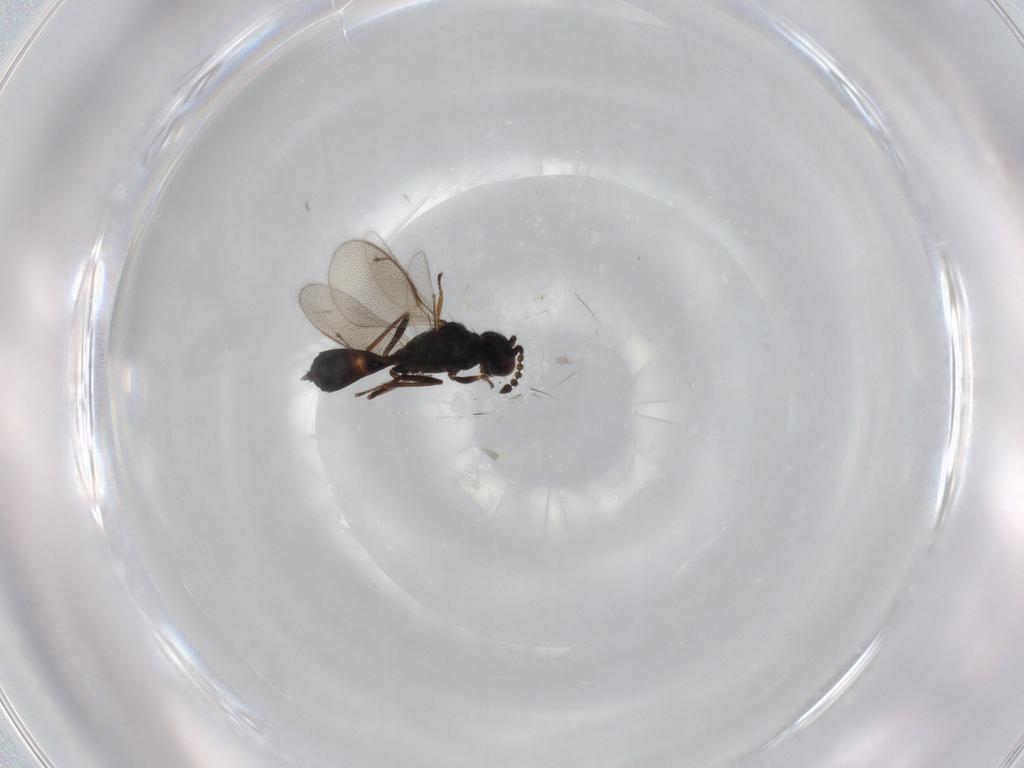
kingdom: Animalia
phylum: Arthropoda
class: Insecta
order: Hymenoptera
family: Eulophidae
